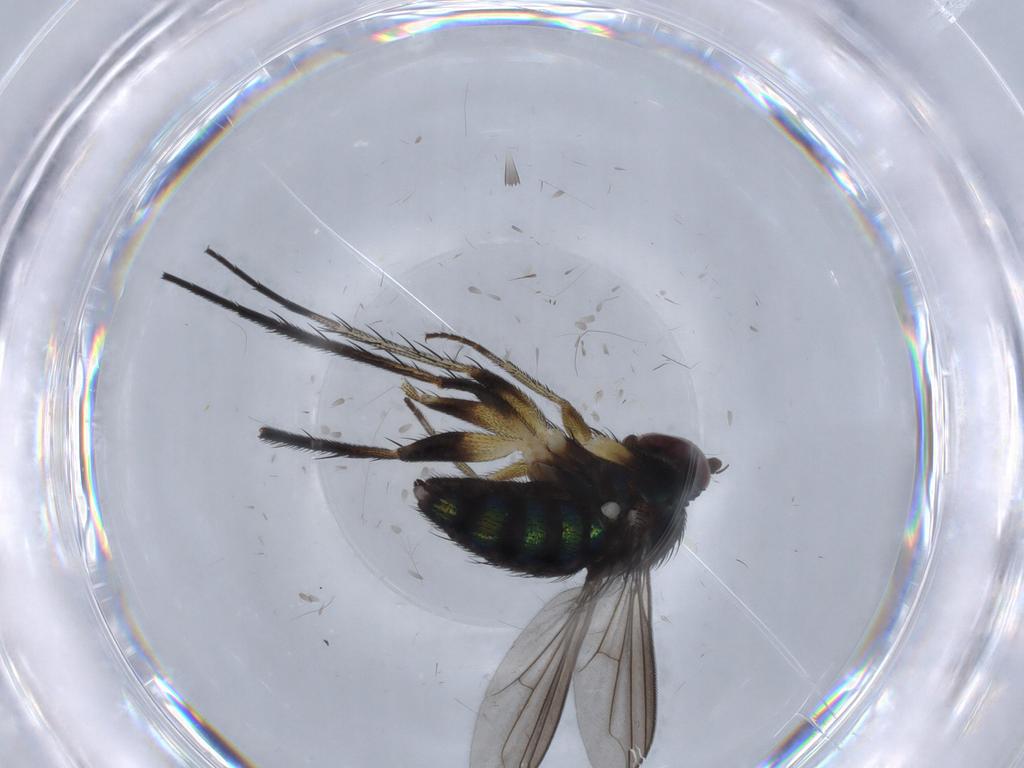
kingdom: Animalia
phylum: Arthropoda
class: Insecta
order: Diptera
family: Dolichopodidae
